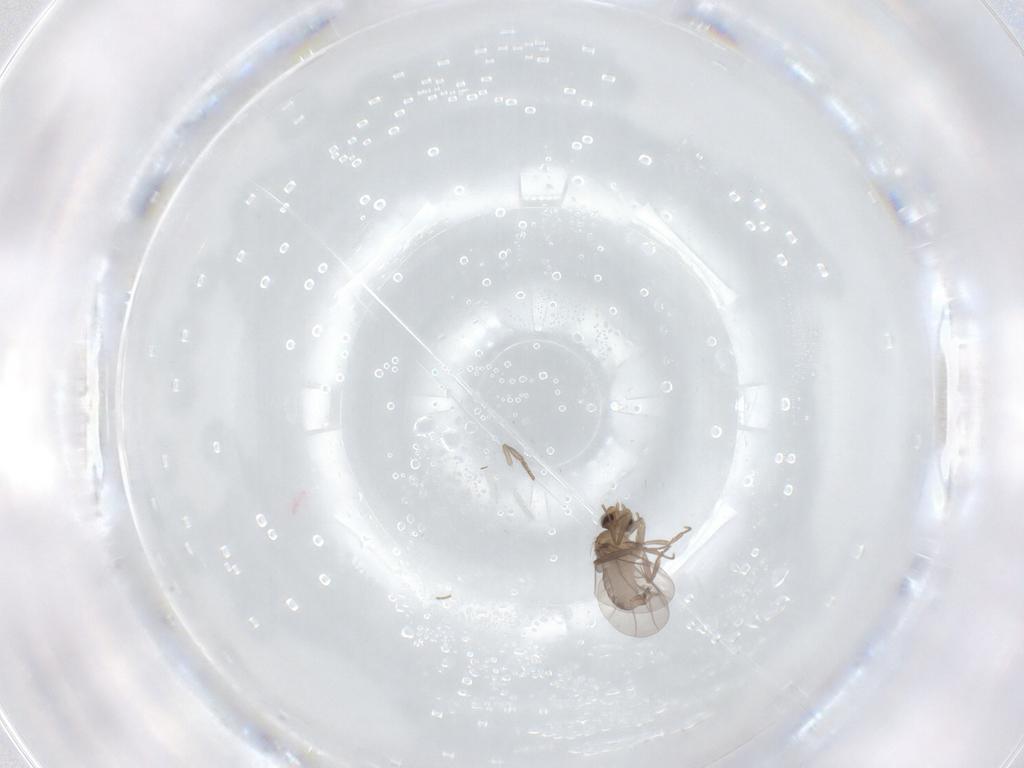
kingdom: Animalia
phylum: Arthropoda
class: Insecta
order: Diptera
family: Psychodidae
